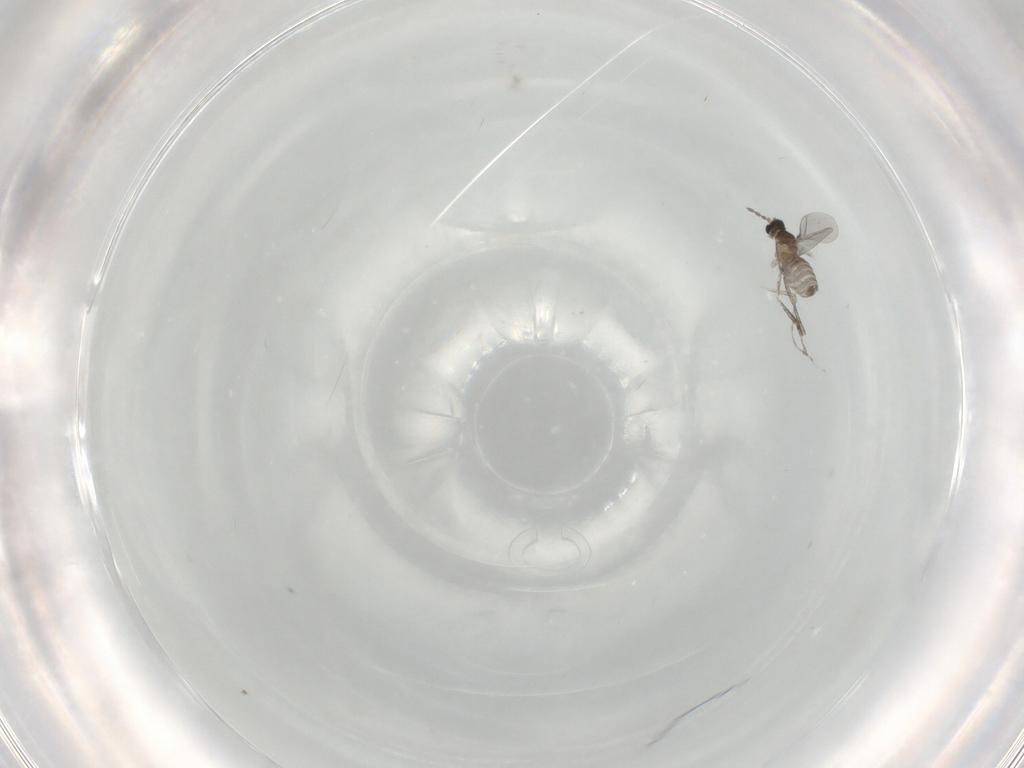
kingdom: Animalia
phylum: Arthropoda
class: Insecta
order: Diptera
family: Cecidomyiidae
